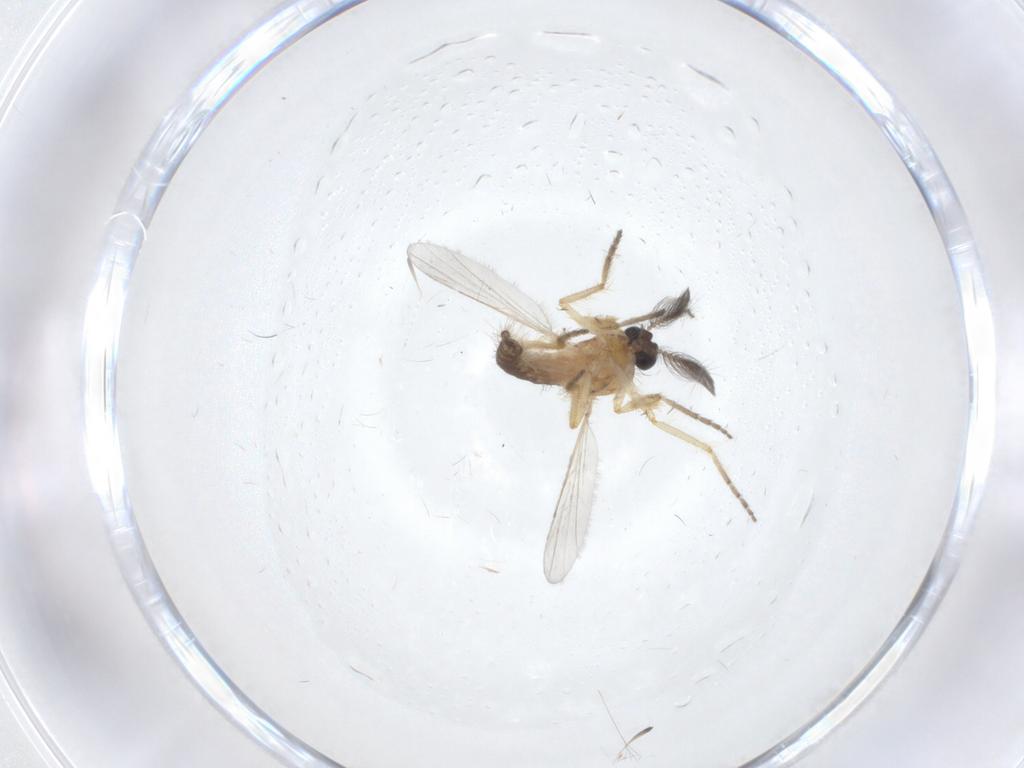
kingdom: Animalia
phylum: Arthropoda
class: Insecta
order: Diptera
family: Ceratopogonidae
